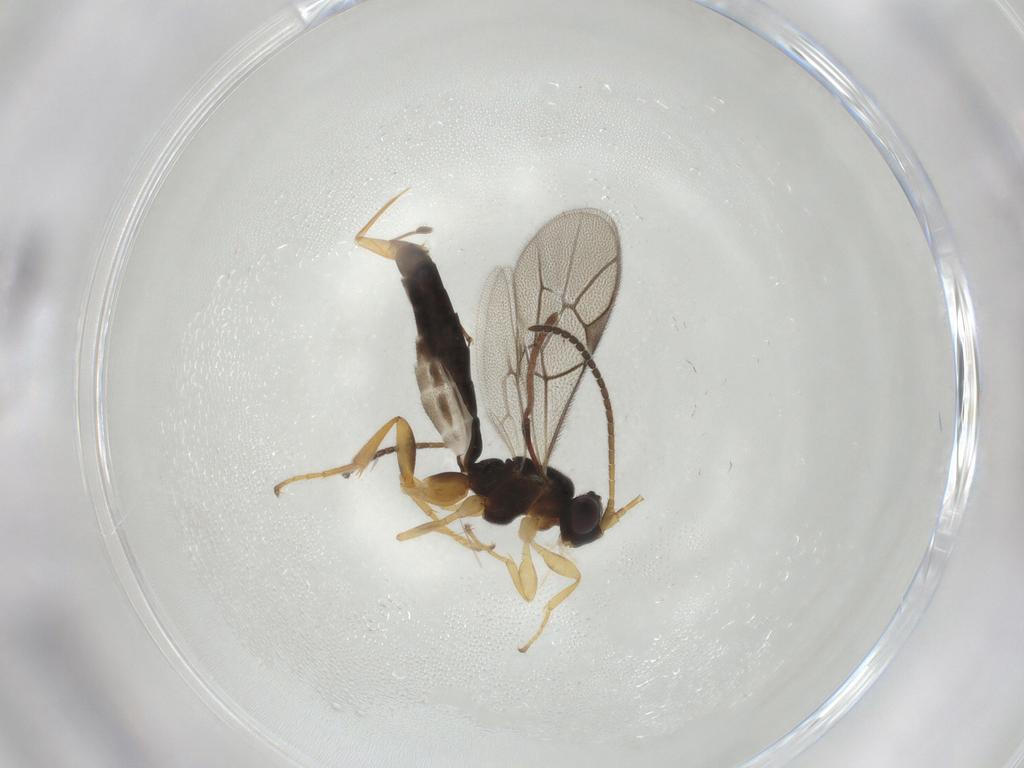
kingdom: Animalia
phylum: Arthropoda
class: Insecta
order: Hymenoptera
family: Ichneumonidae
